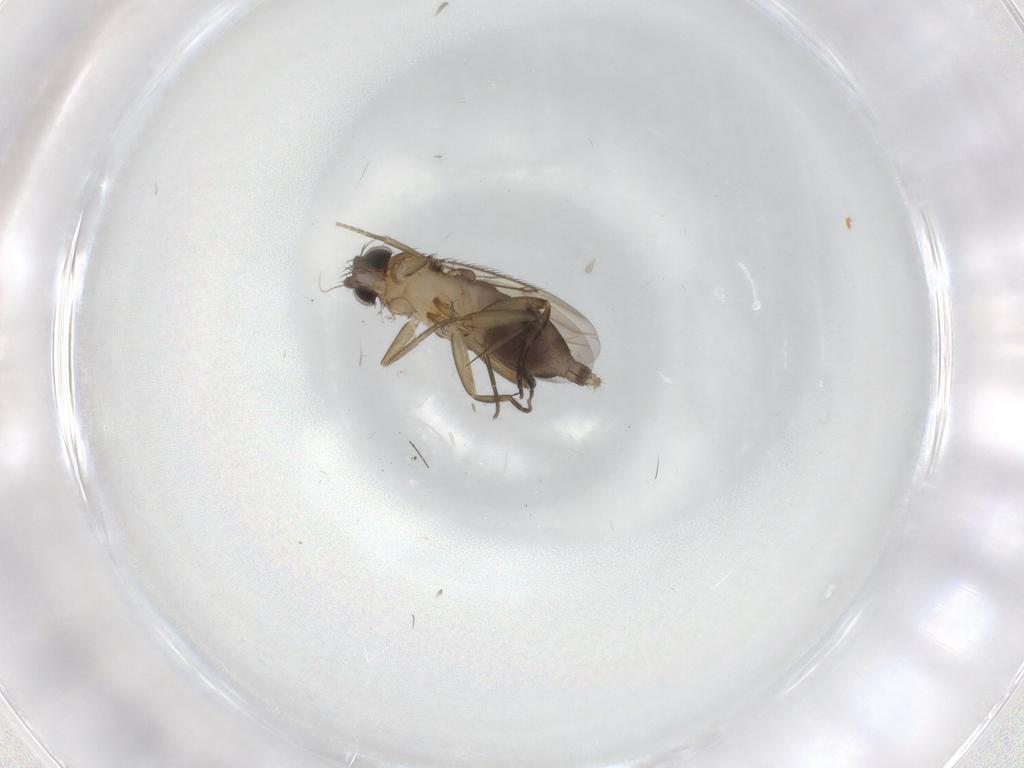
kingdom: Animalia
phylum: Arthropoda
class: Insecta
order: Diptera
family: Phoridae
